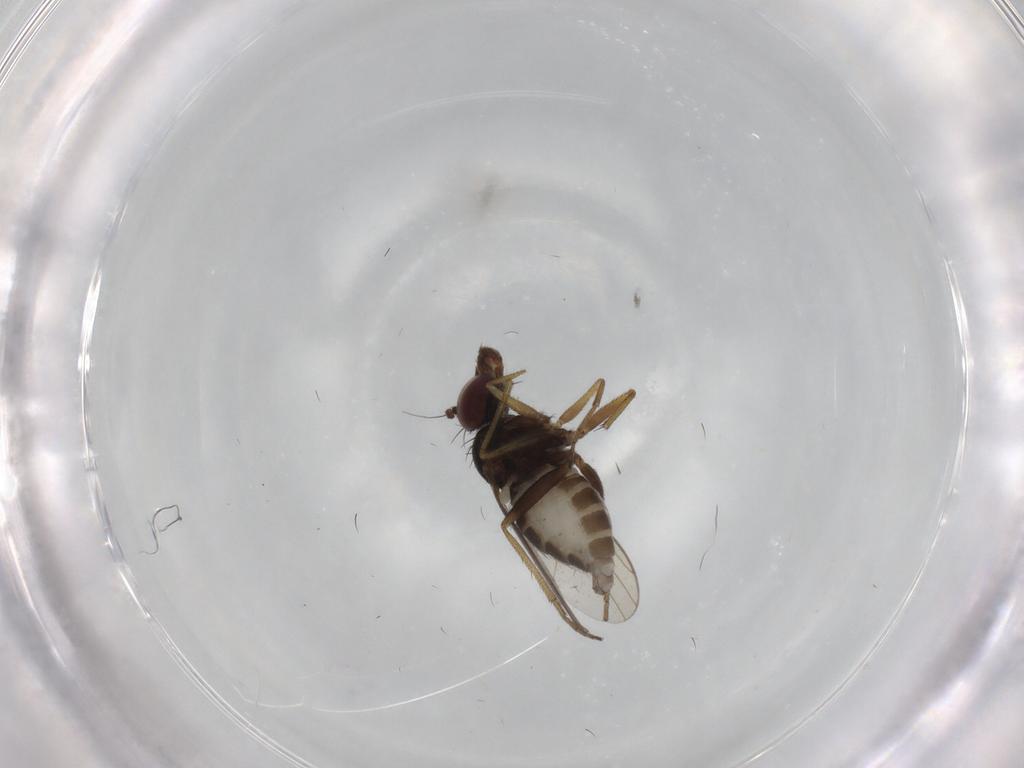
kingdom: Animalia
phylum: Arthropoda
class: Insecta
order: Diptera
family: Dolichopodidae
